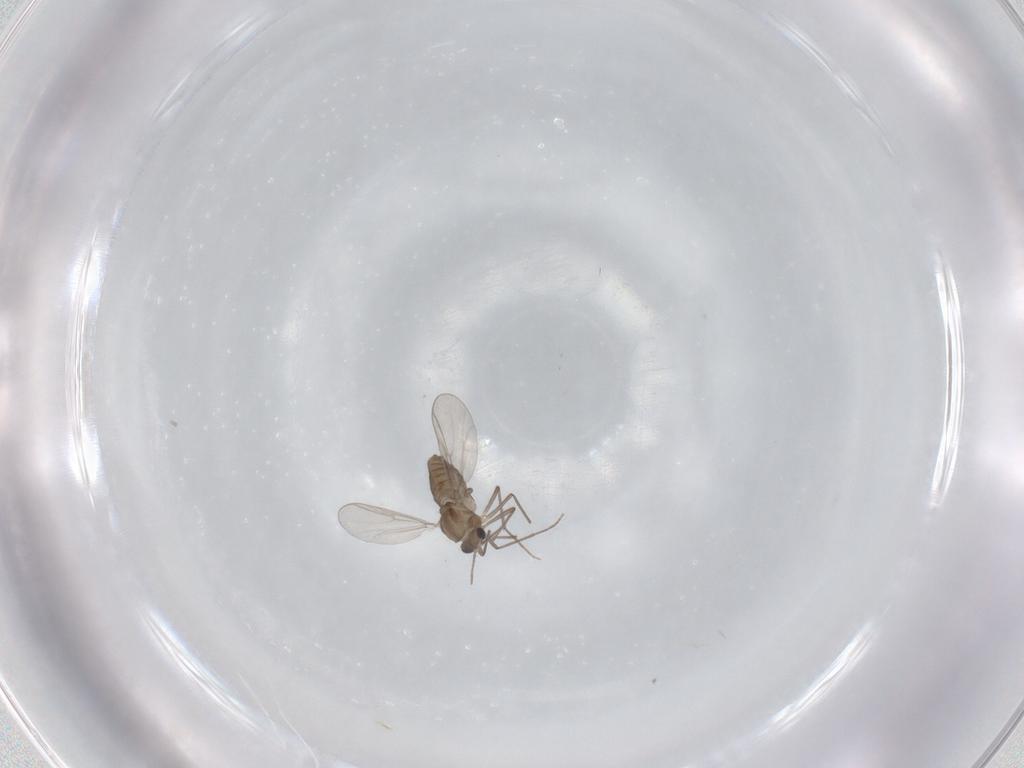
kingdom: Animalia
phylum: Arthropoda
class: Insecta
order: Diptera
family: Chironomidae
